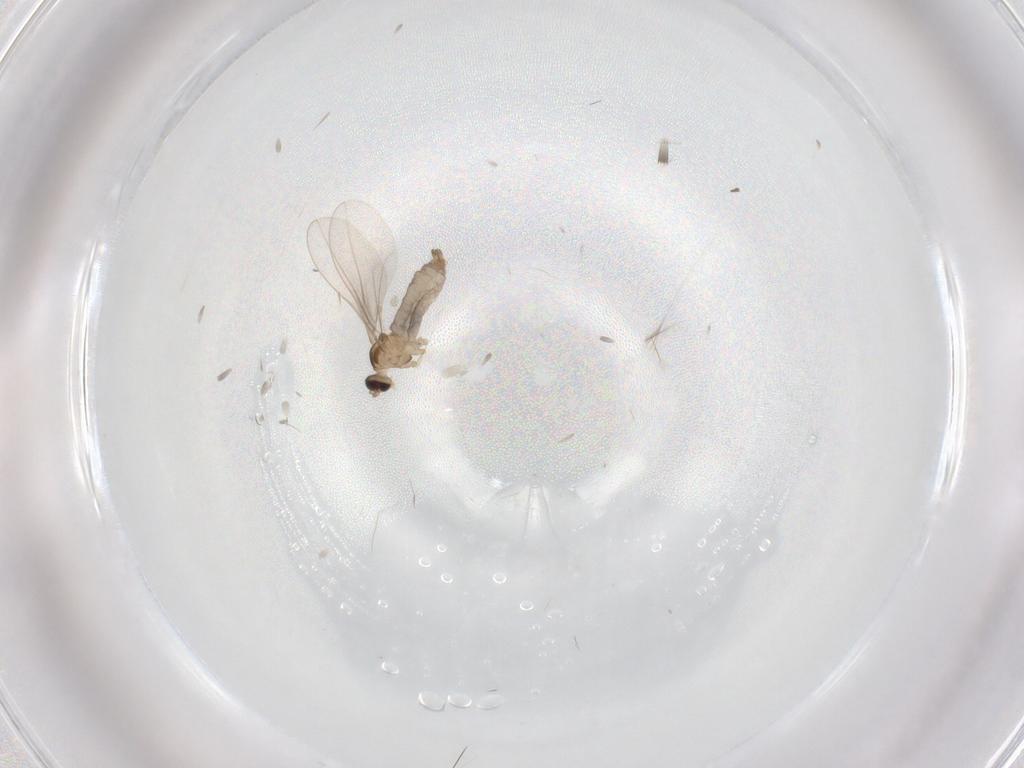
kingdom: Animalia
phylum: Arthropoda
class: Insecta
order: Diptera
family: Cecidomyiidae
